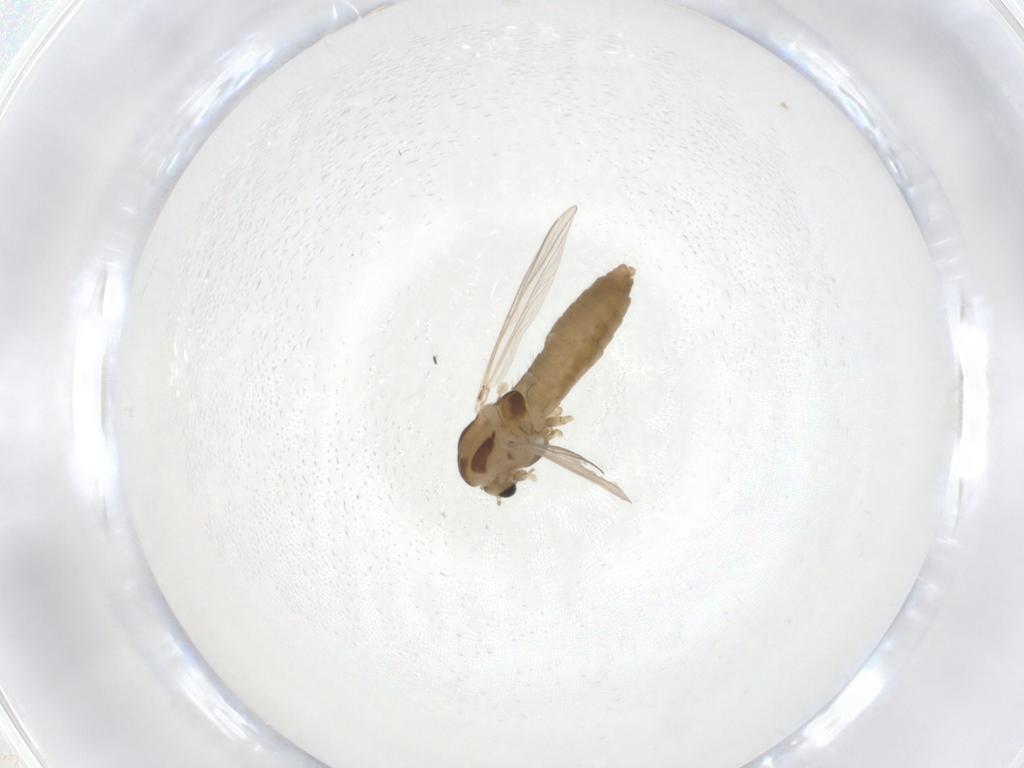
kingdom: Animalia
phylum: Arthropoda
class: Insecta
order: Diptera
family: Chironomidae
